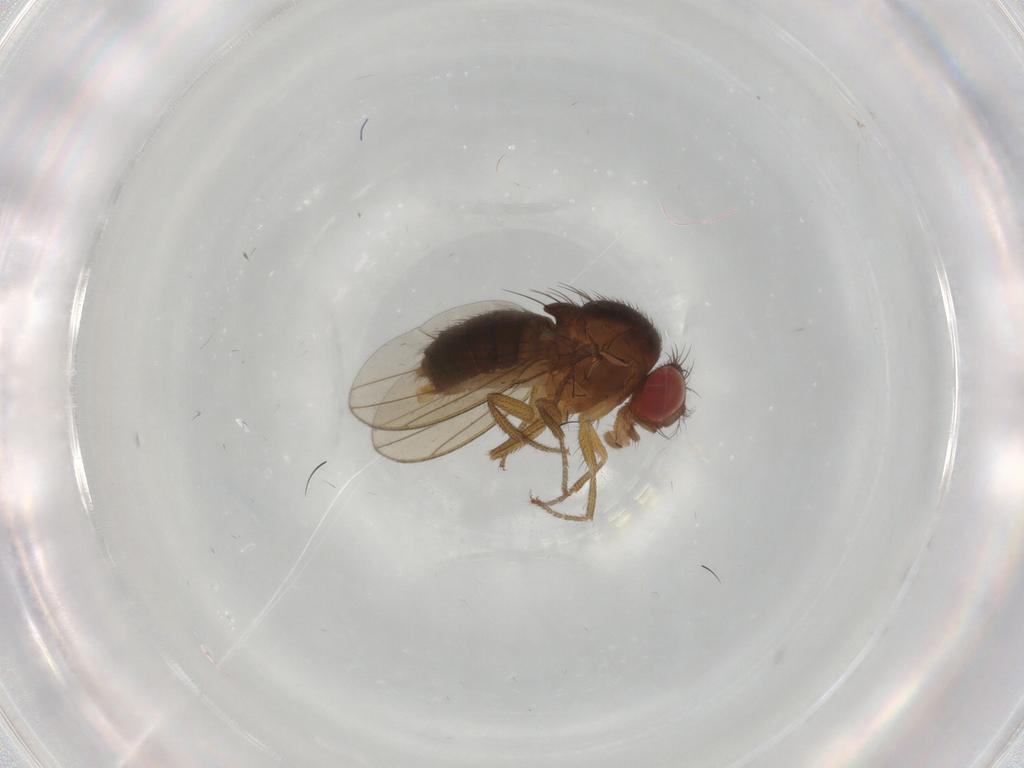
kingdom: Animalia
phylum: Arthropoda
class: Insecta
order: Diptera
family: Drosophilidae
